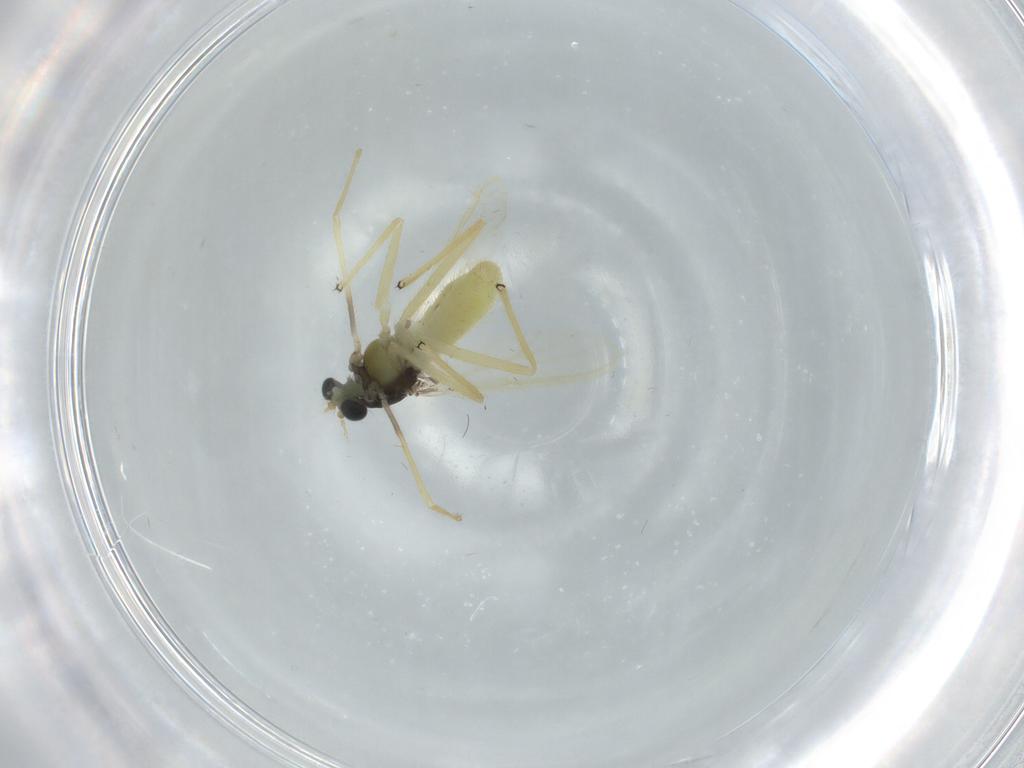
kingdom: Animalia
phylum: Arthropoda
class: Insecta
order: Diptera
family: Chironomidae
